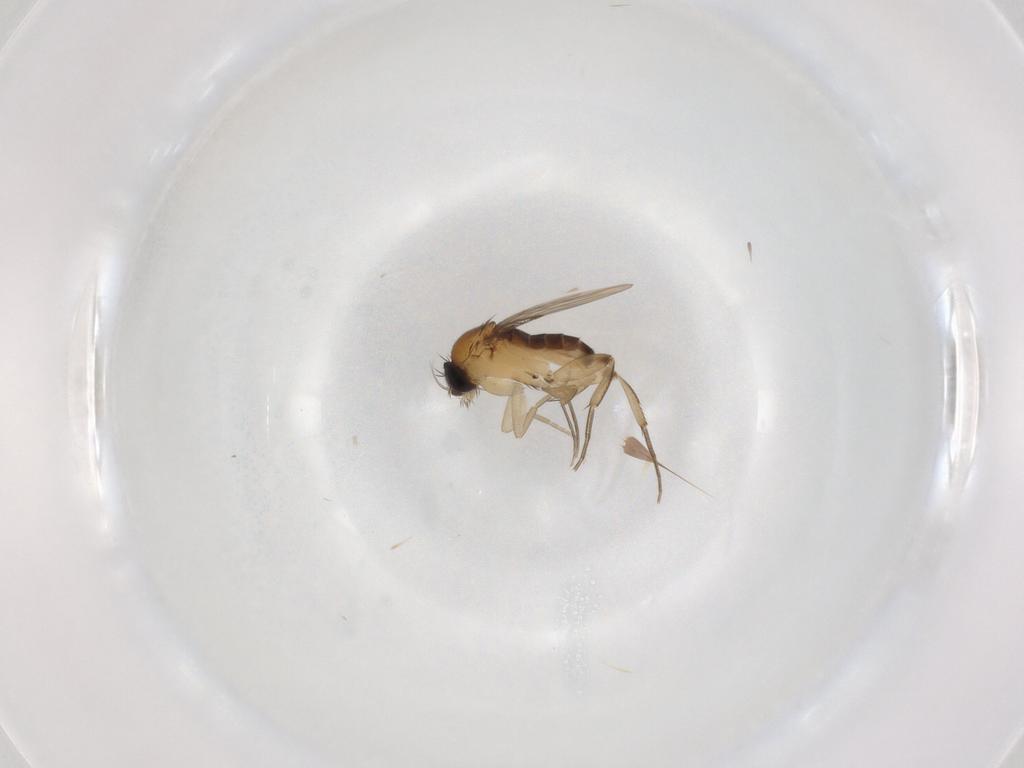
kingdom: Animalia
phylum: Arthropoda
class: Insecta
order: Diptera
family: Phoridae
